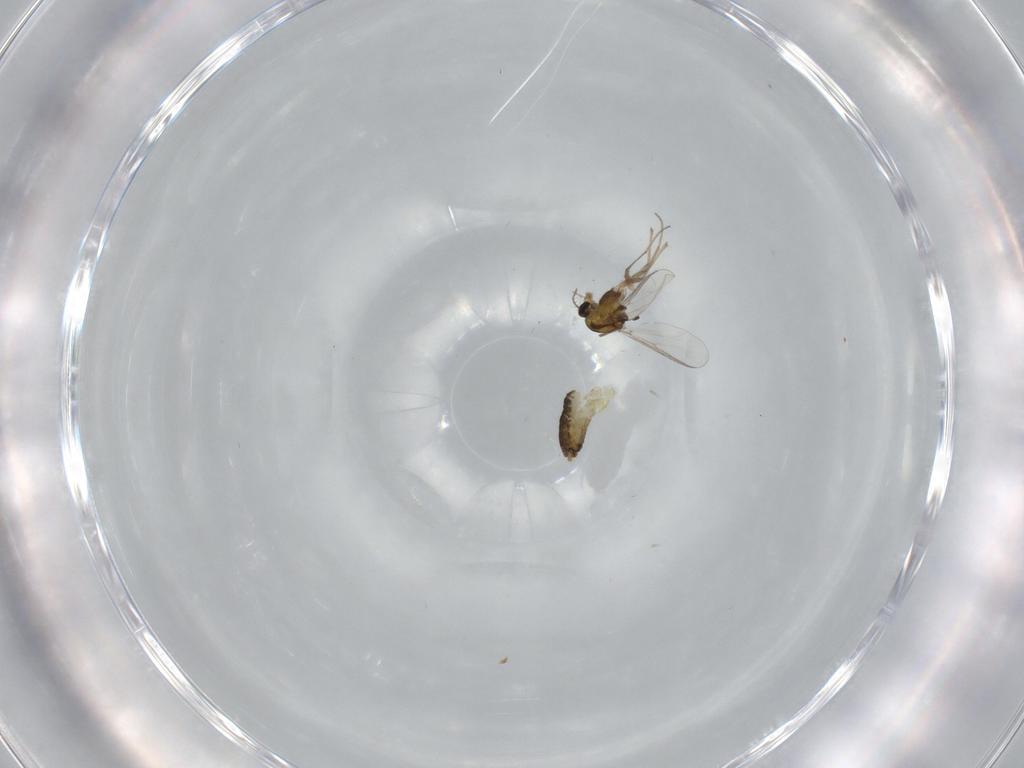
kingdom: Animalia
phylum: Arthropoda
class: Insecta
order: Diptera
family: Chironomidae
